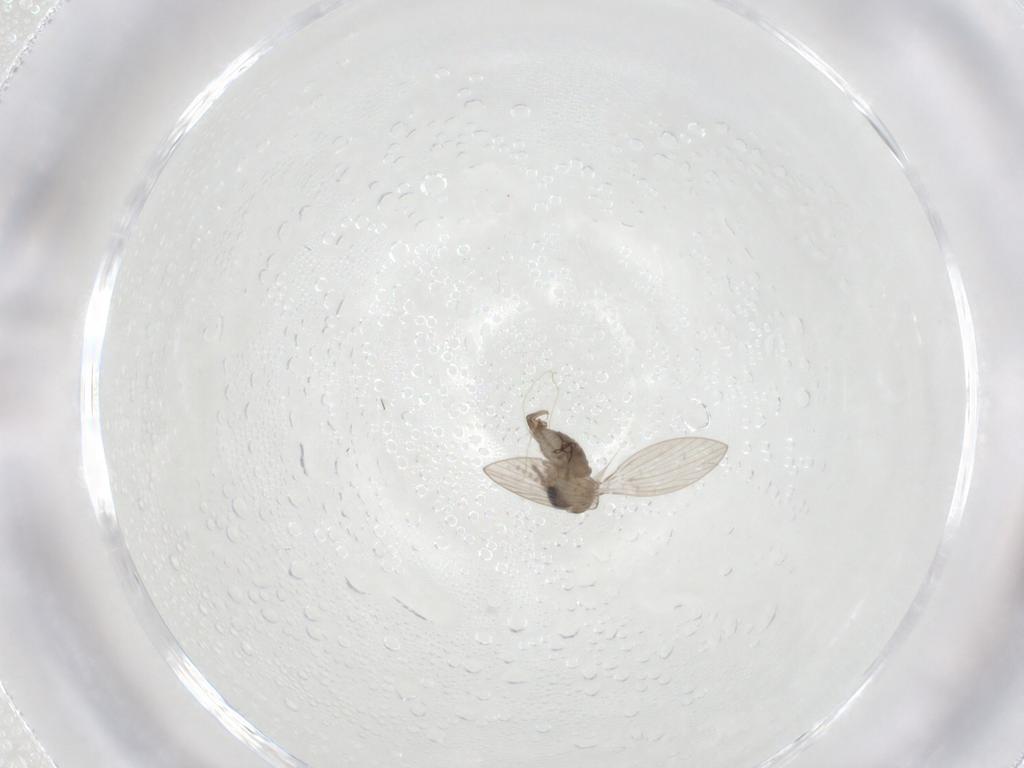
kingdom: Animalia
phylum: Arthropoda
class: Insecta
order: Diptera
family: Psychodidae
